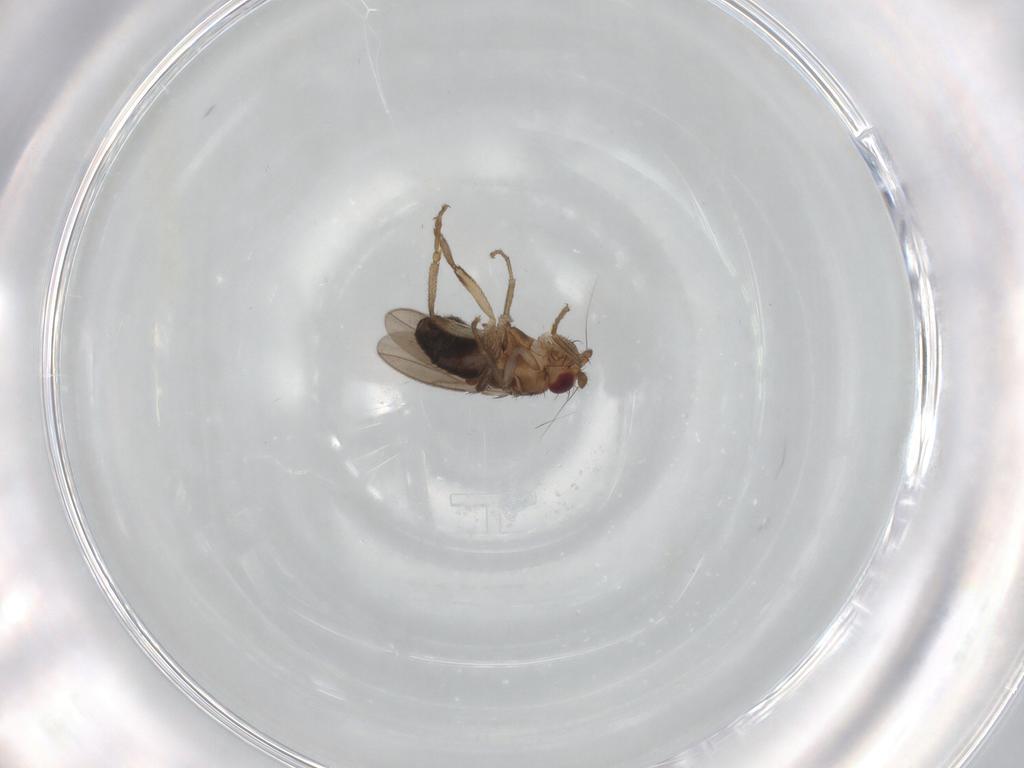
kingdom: Animalia
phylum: Arthropoda
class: Insecta
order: Diptera
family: Sphaeroceridae
